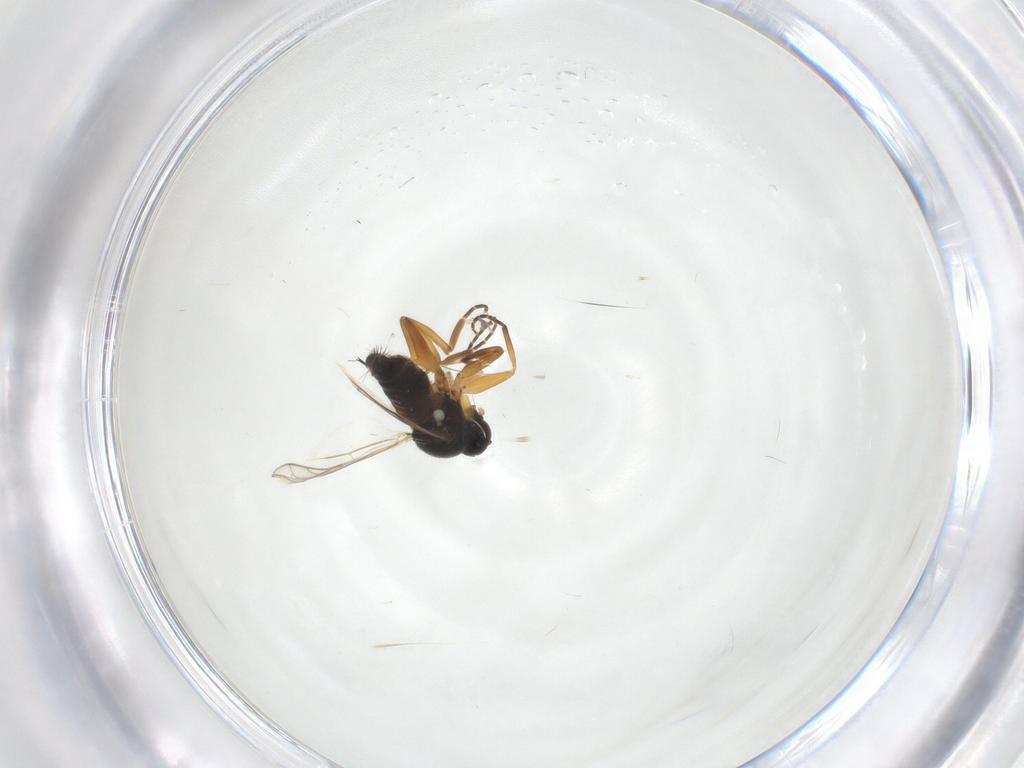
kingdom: Animalia
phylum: Arthropoda
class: Insecta
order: Diptera
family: Hybotidae
